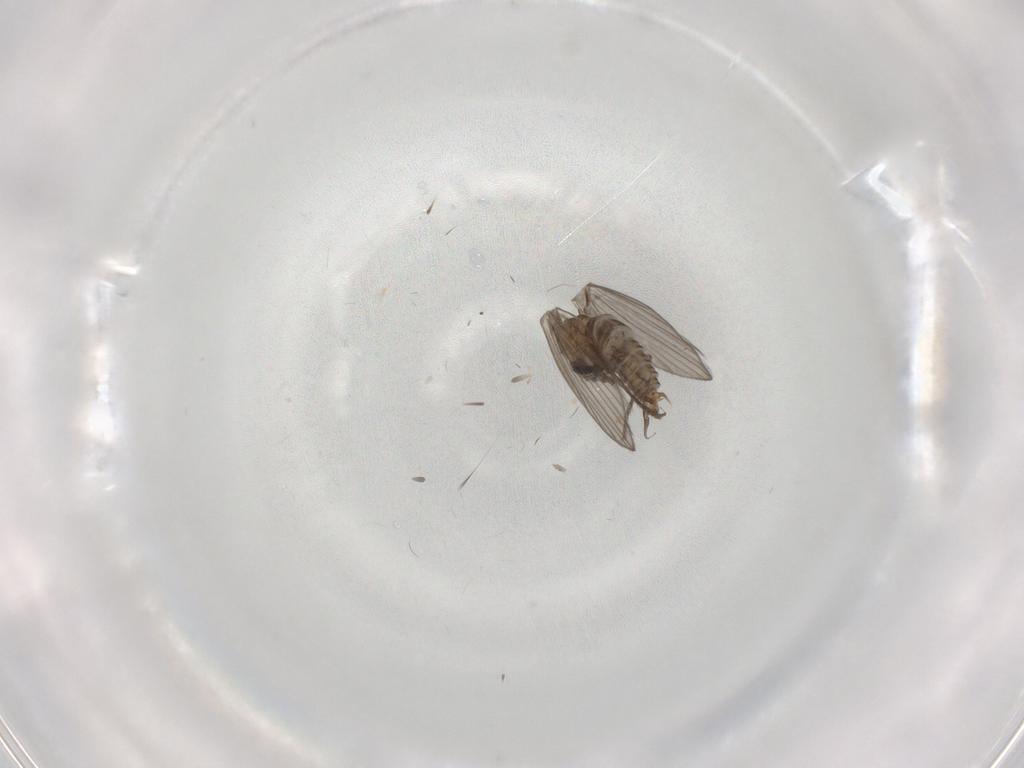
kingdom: Animalia
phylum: Arthropoda
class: Insecta
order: Diptera
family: Psychodidae
